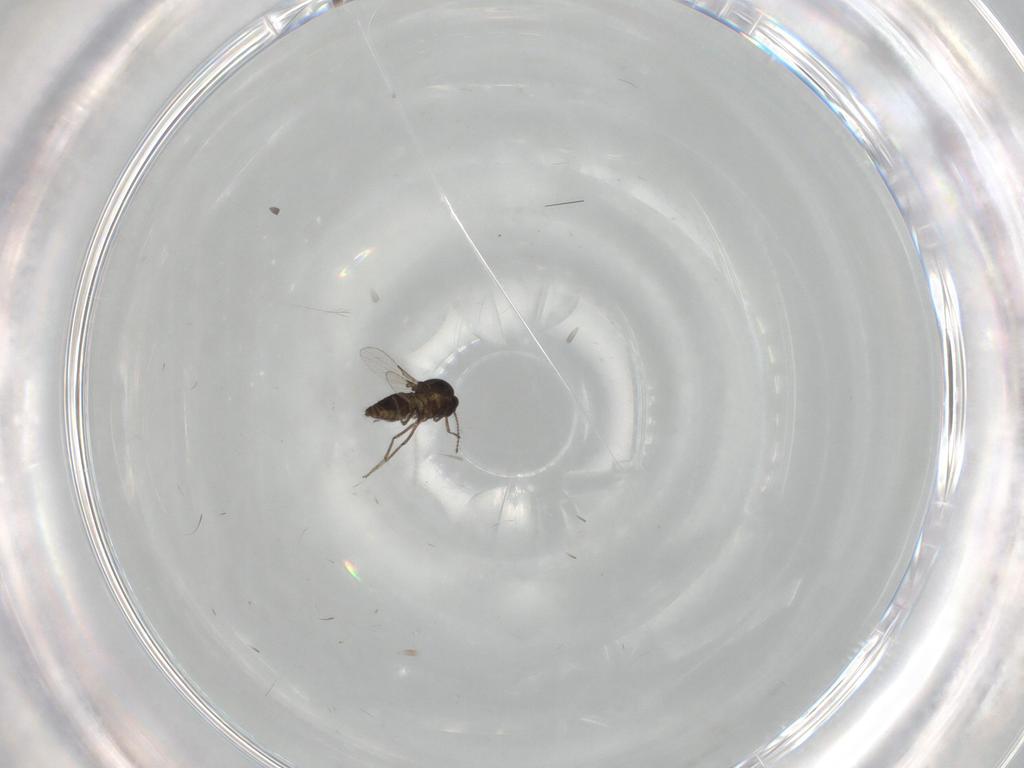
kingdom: Animalia
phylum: Arthropoda
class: Insecta
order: Diptera
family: Ceratopogonidae
